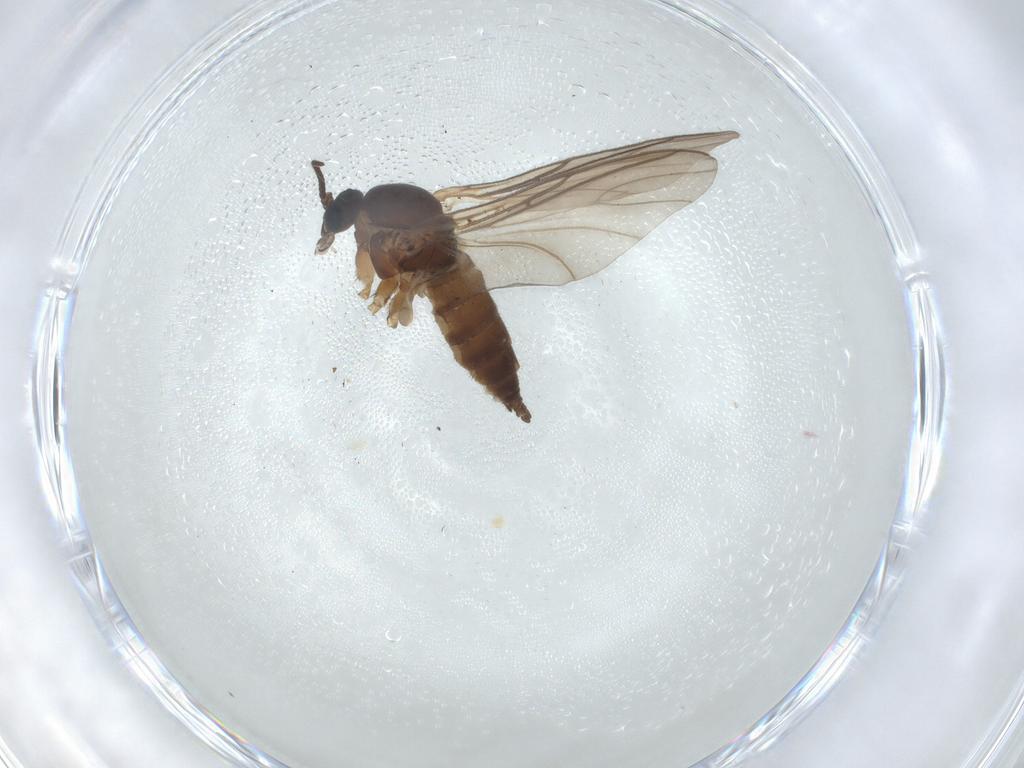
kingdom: Animalia
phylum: Arthropoda
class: Insecta
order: Diptera
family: Sciaridae
